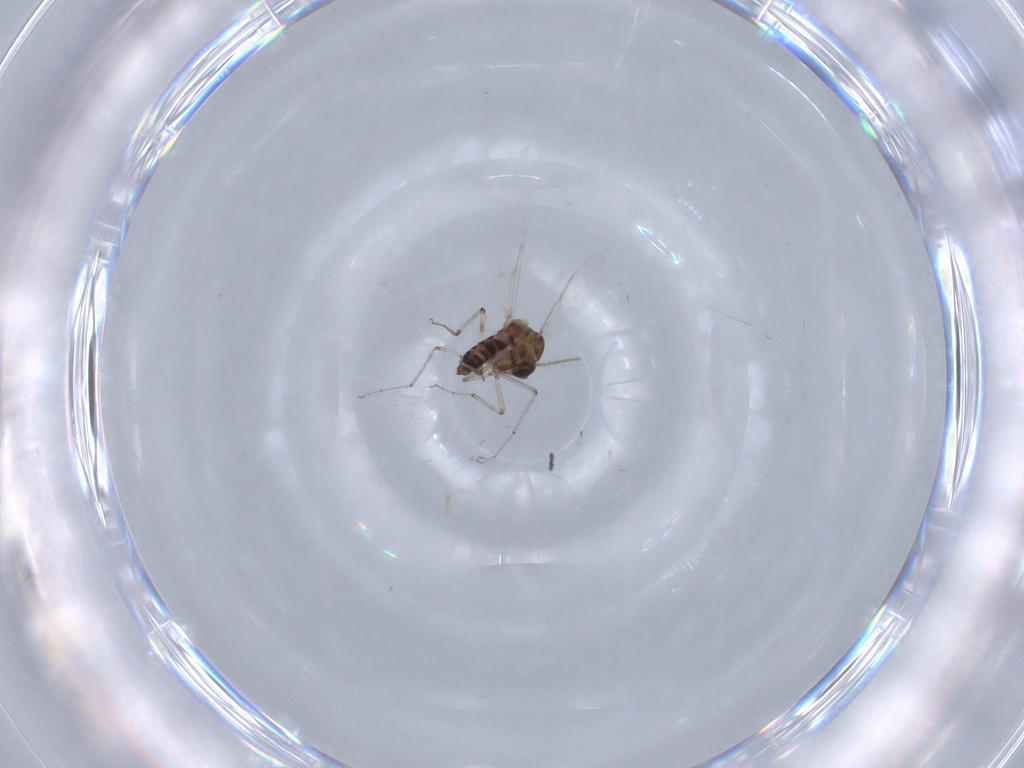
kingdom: Animalia
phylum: Arthropoda
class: Insecta
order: Diptera
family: Ceratopogonidae
